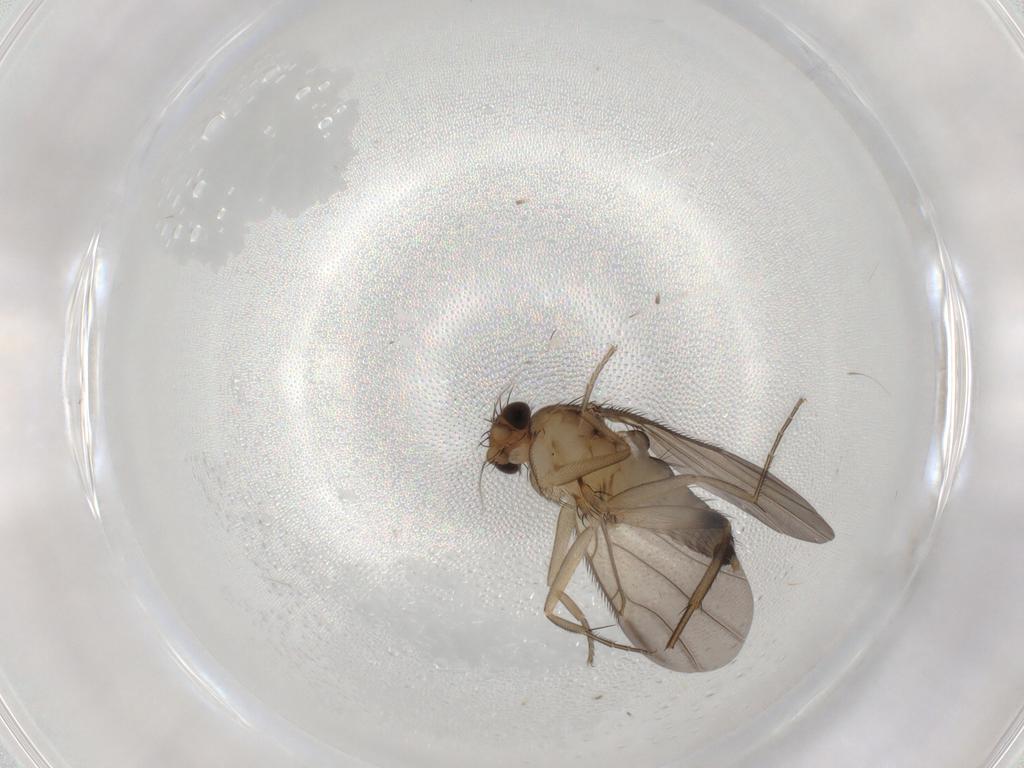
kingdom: Animalia
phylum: Arthropoda
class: Insecta
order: Diptera
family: Phoridae
